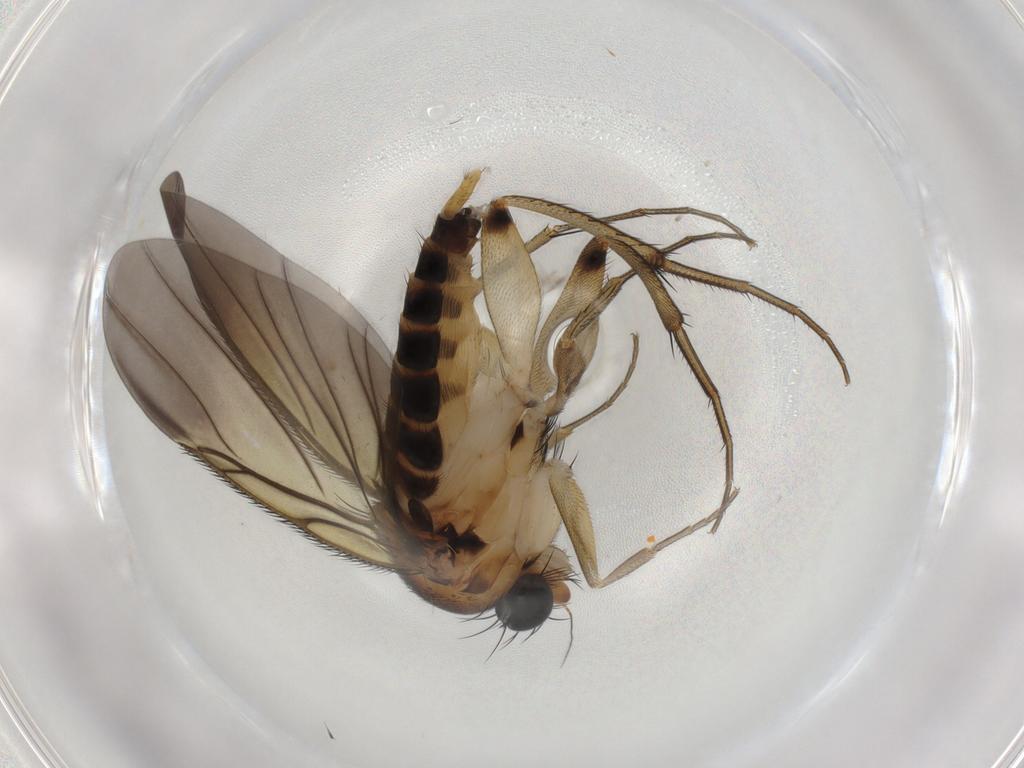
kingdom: Animalia
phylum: Arthropoda
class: Insecta
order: Diptera
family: Phoridae
